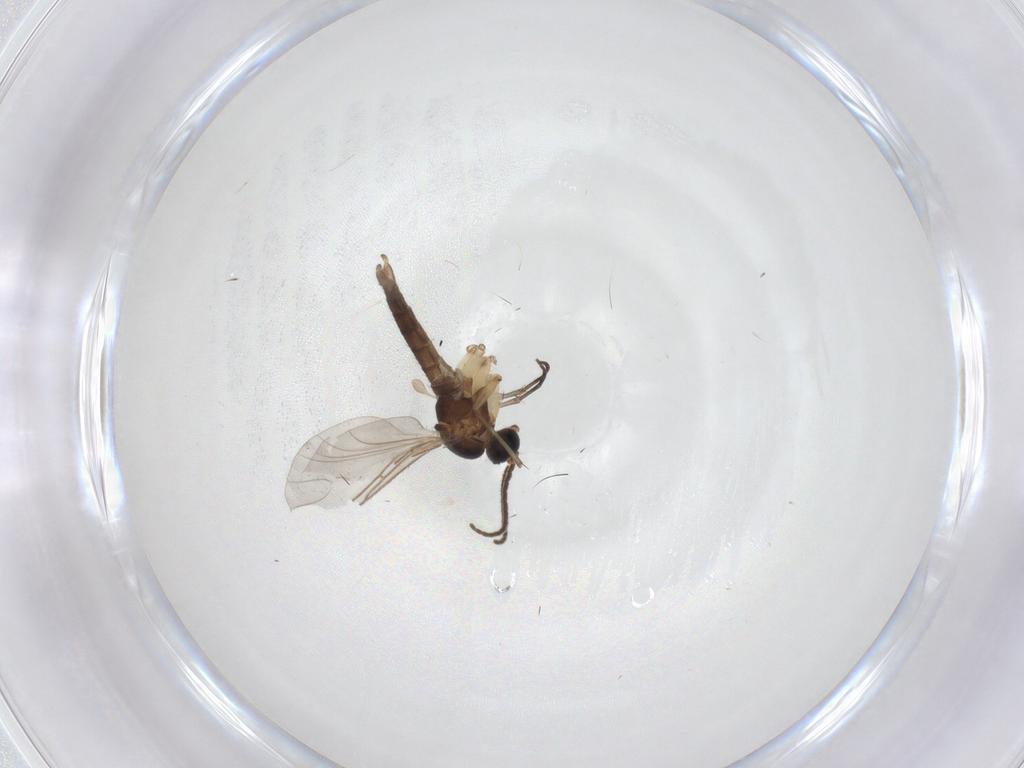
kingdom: Animalia
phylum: Arthropoda
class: Insecta
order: Diptera
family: Sciaridae
